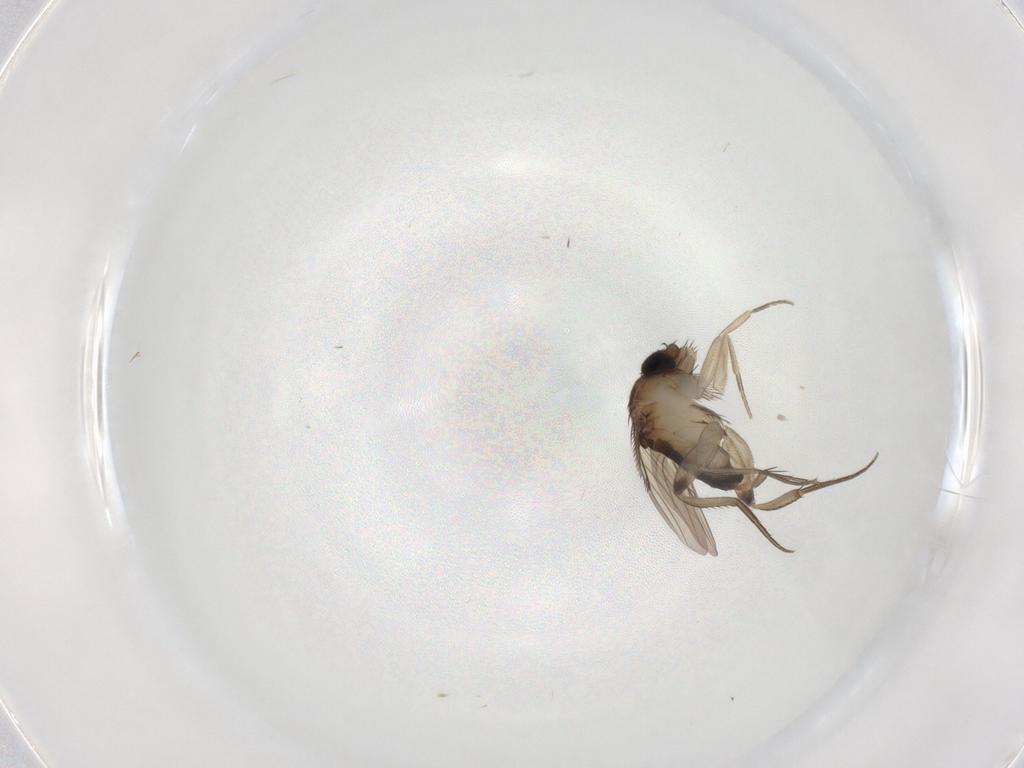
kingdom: Animalia
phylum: Arthropoda
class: Insecta
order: Diptera
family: Phoridae
